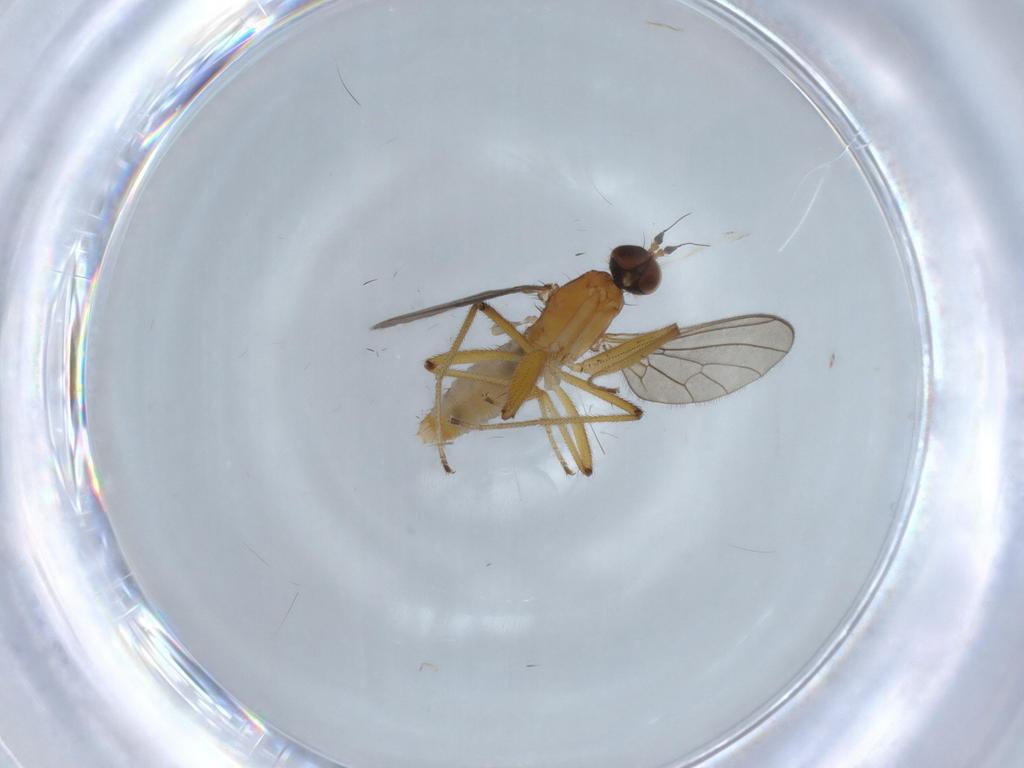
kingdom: Animalia
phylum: Arthropoda
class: Insecta
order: Diptera
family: Empididae
